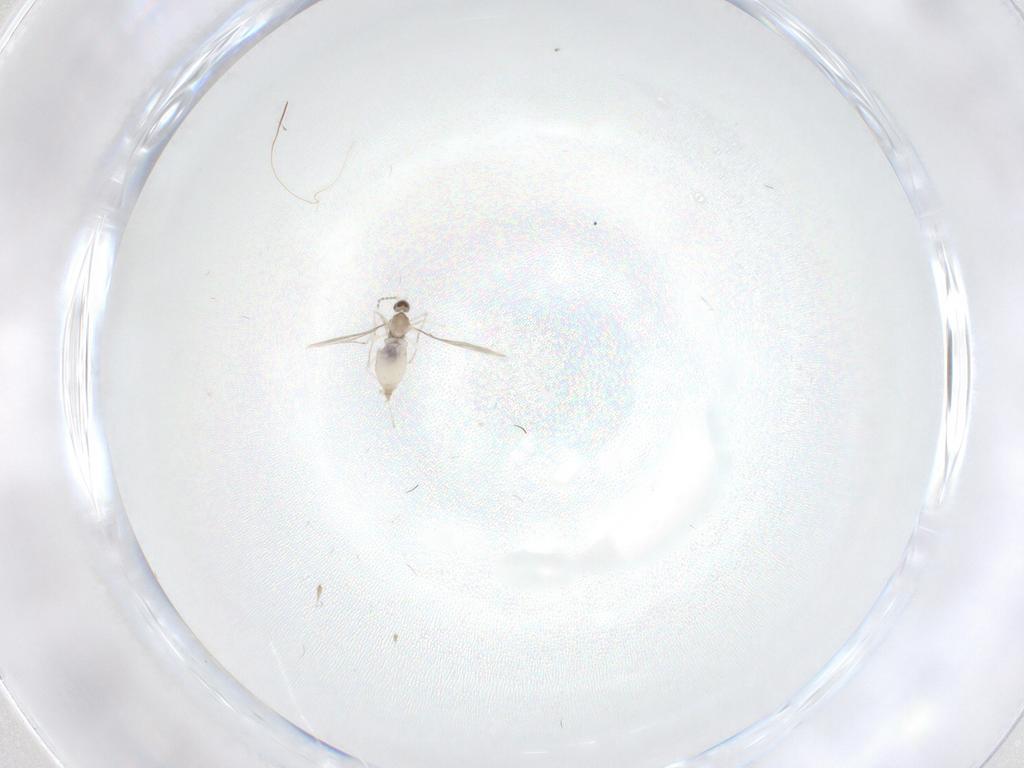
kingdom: Animalia
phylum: Arthropoda
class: Insecta
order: Diptera
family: Cecidomyiidae
